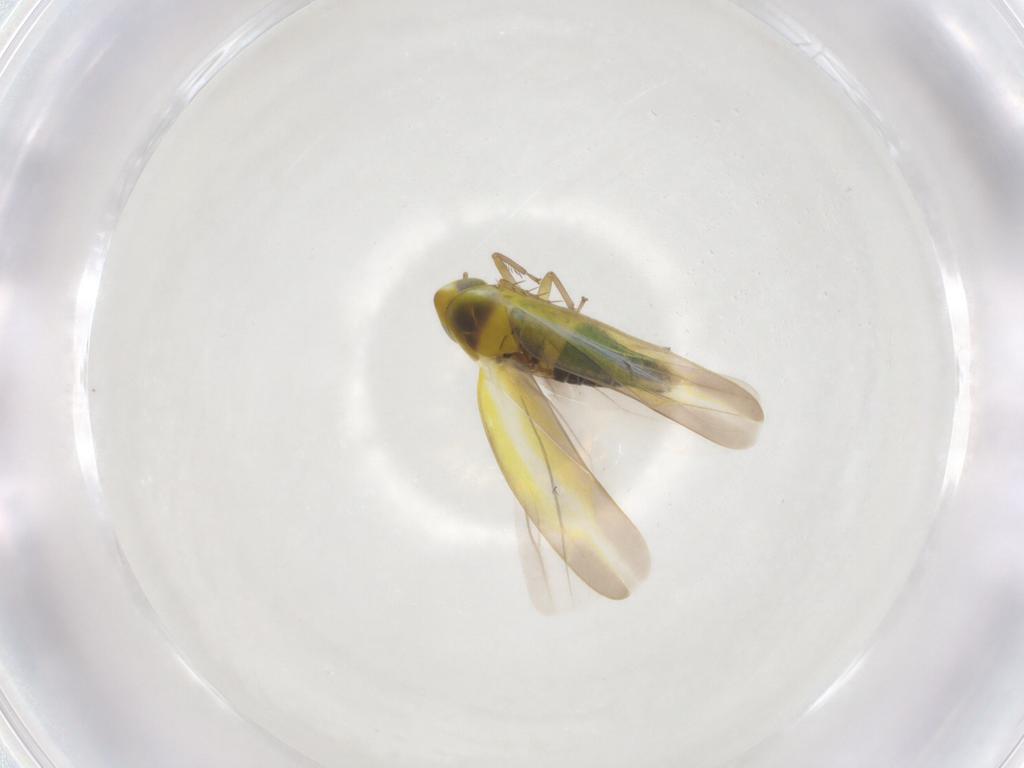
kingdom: Animalia
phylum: Arthropoda
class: Insecta
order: Hemiptera
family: Cicadellidae
